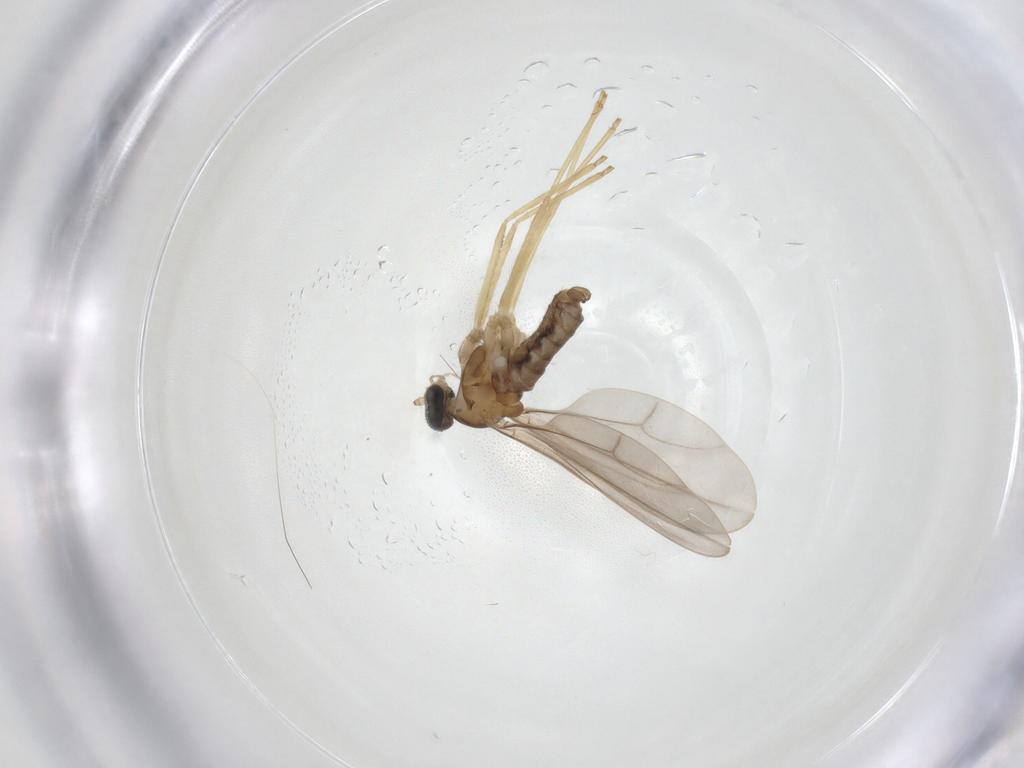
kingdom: Animalia
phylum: Arthropoda
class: Insecta
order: Diptera
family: Cecidomyiidae
